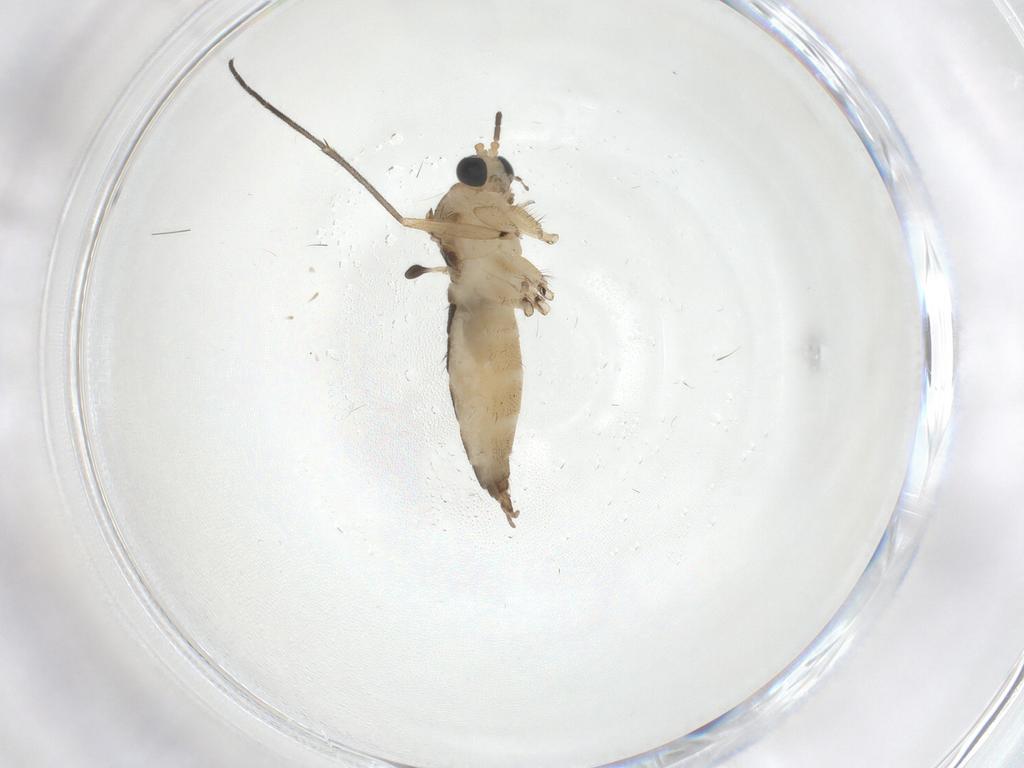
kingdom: Animalia
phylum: Arthropoda
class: Insecta
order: Diptera
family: Sciaridae
